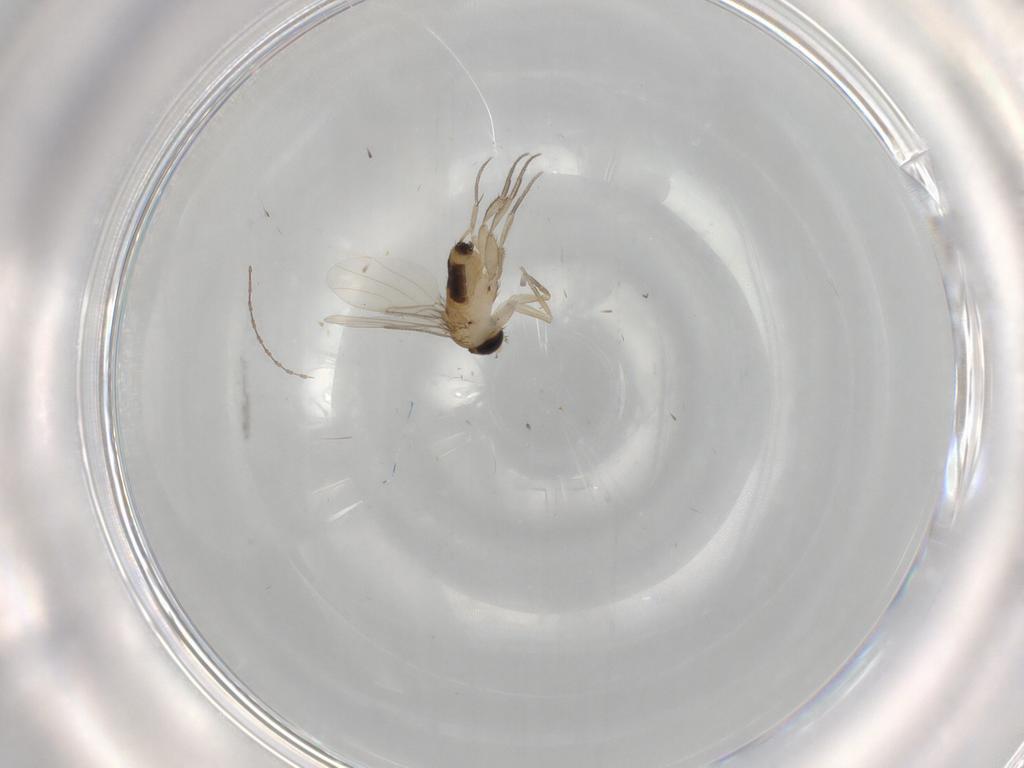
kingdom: Animalia
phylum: Arthropoda
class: Insecta
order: Diptera
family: Phoridae
